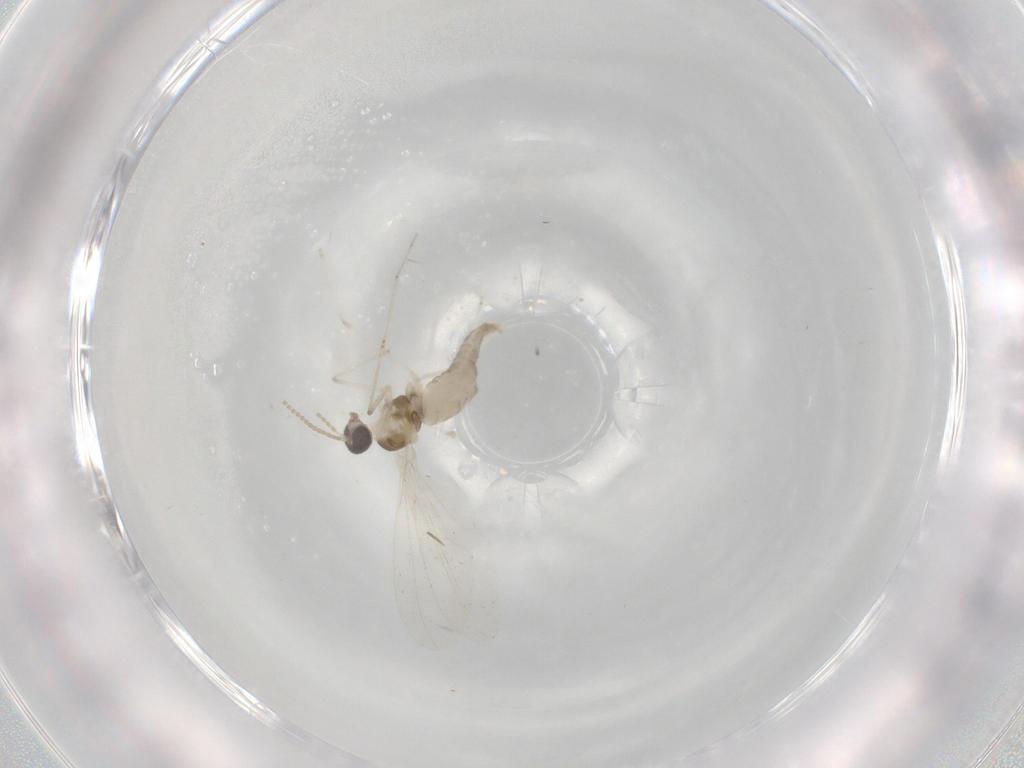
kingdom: Animalia
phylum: Arthropoda
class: Insecta
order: Diptera
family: Cecidomyiidae
